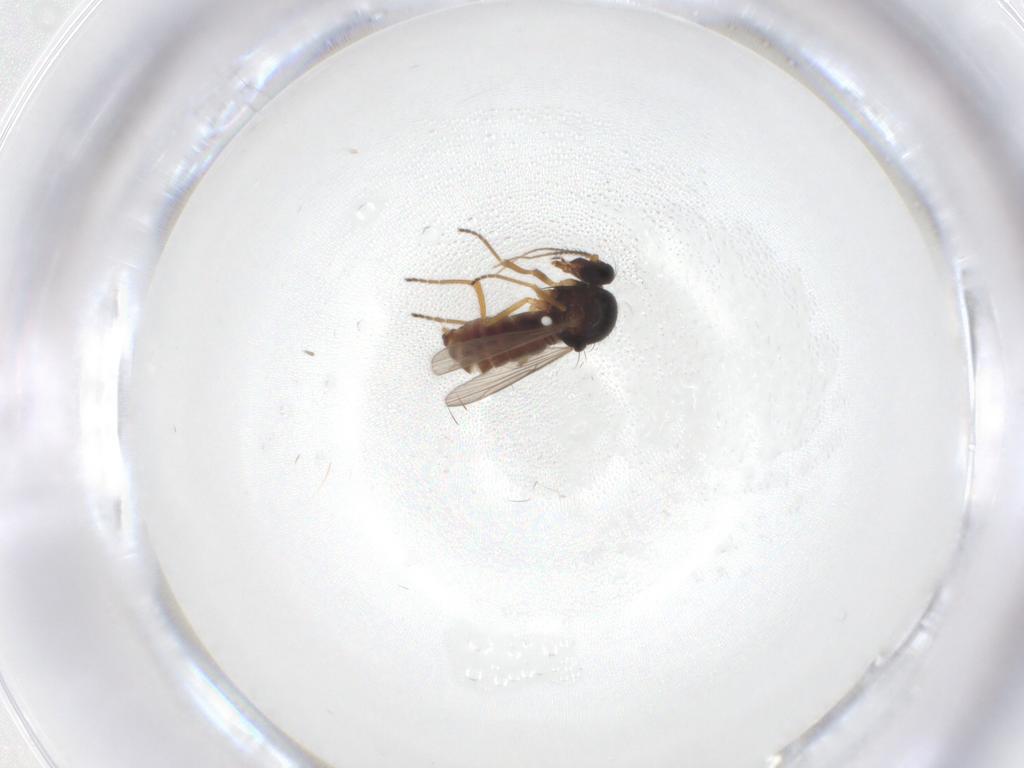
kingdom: Animalia
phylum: Arthropoda
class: Insecta
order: Diptera
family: Ceratopogonidae
